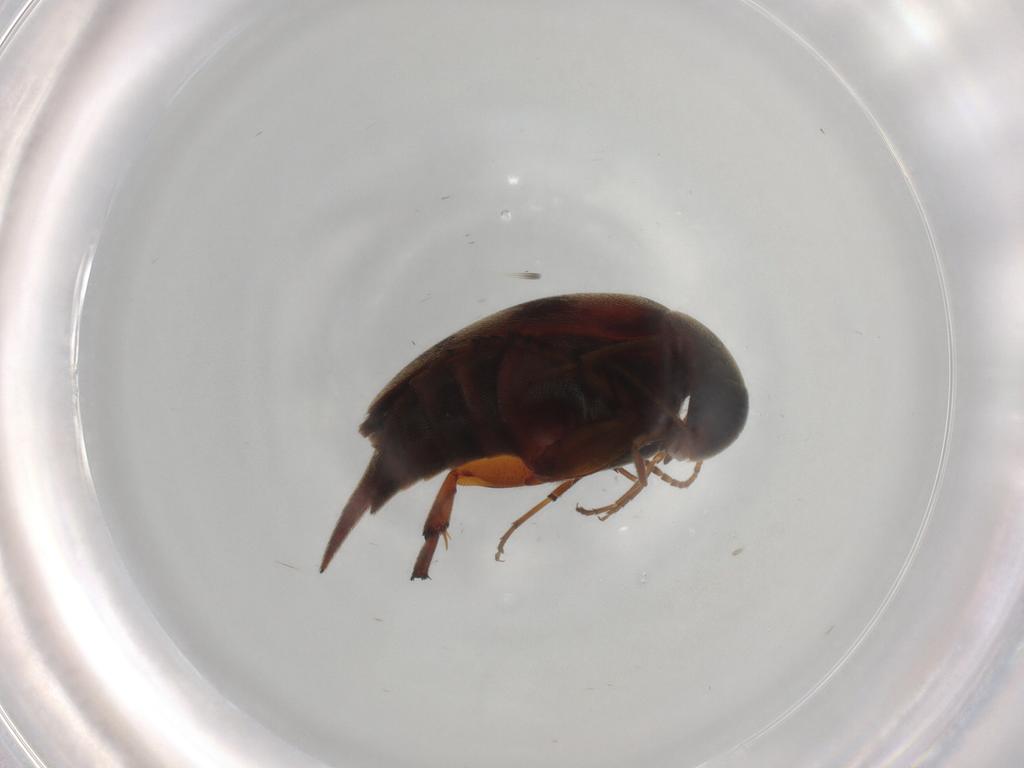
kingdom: Animalia
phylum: Arthropoda
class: Insecta
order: Coleoptera
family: Mordellidae
